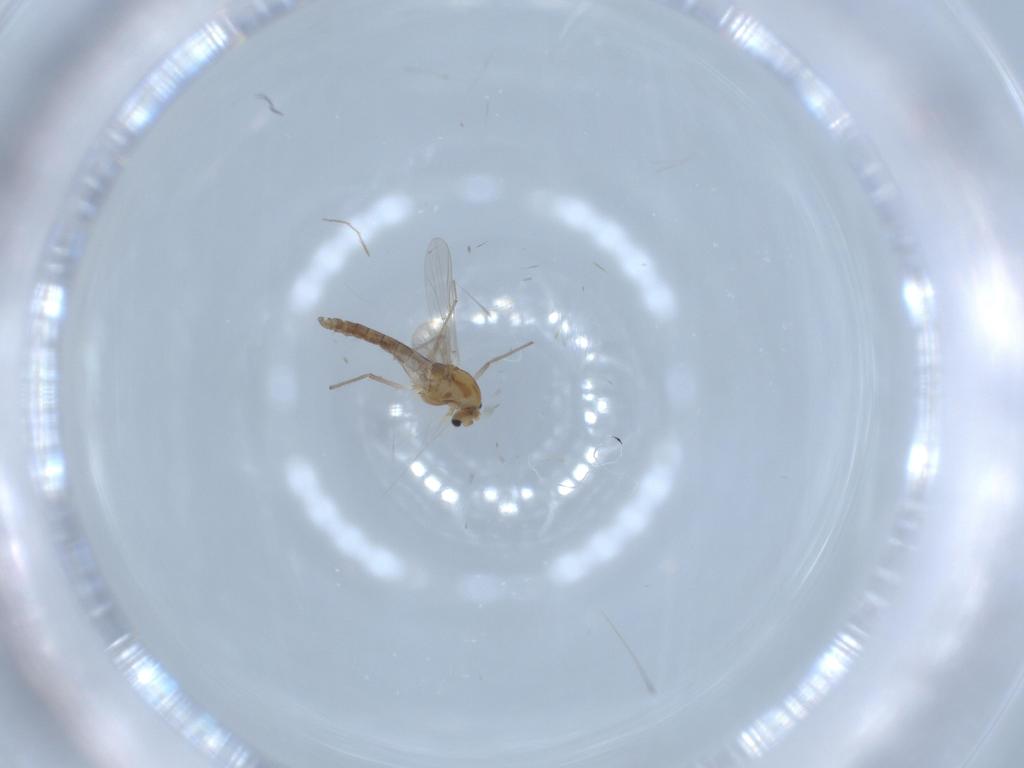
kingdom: Animalia
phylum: Arthropoda
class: Insecta
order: Diptera
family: Chironomidae
